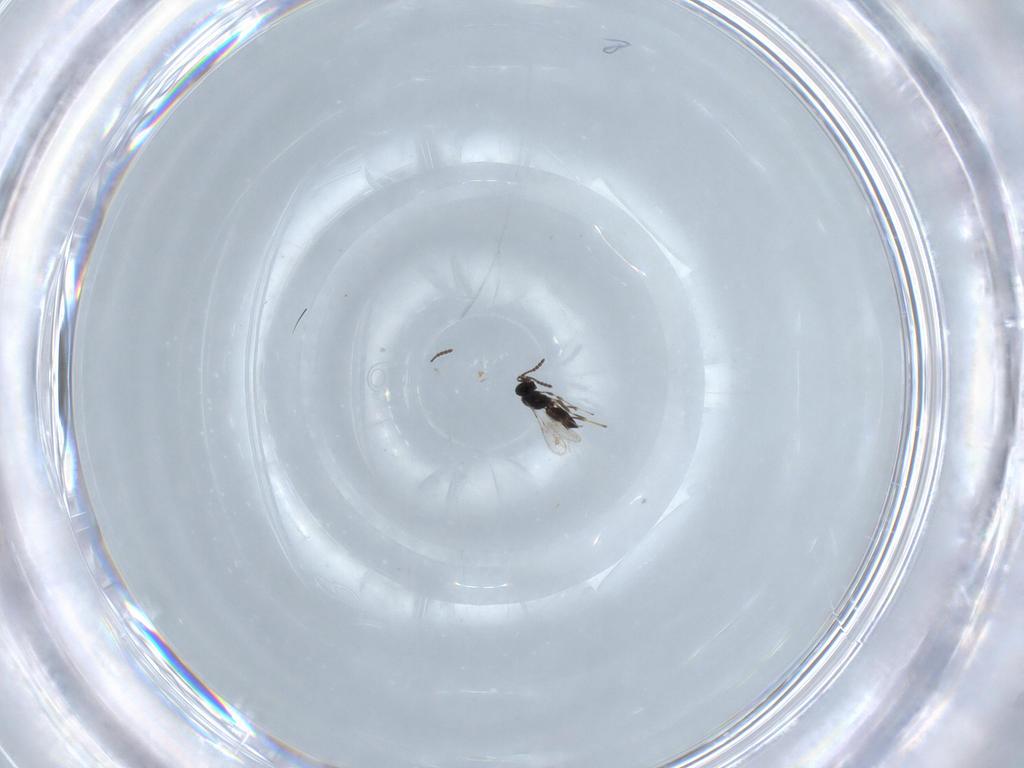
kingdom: Animalia
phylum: Arthropoda
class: Insecta
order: Hymenoptera
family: Scelionidae
